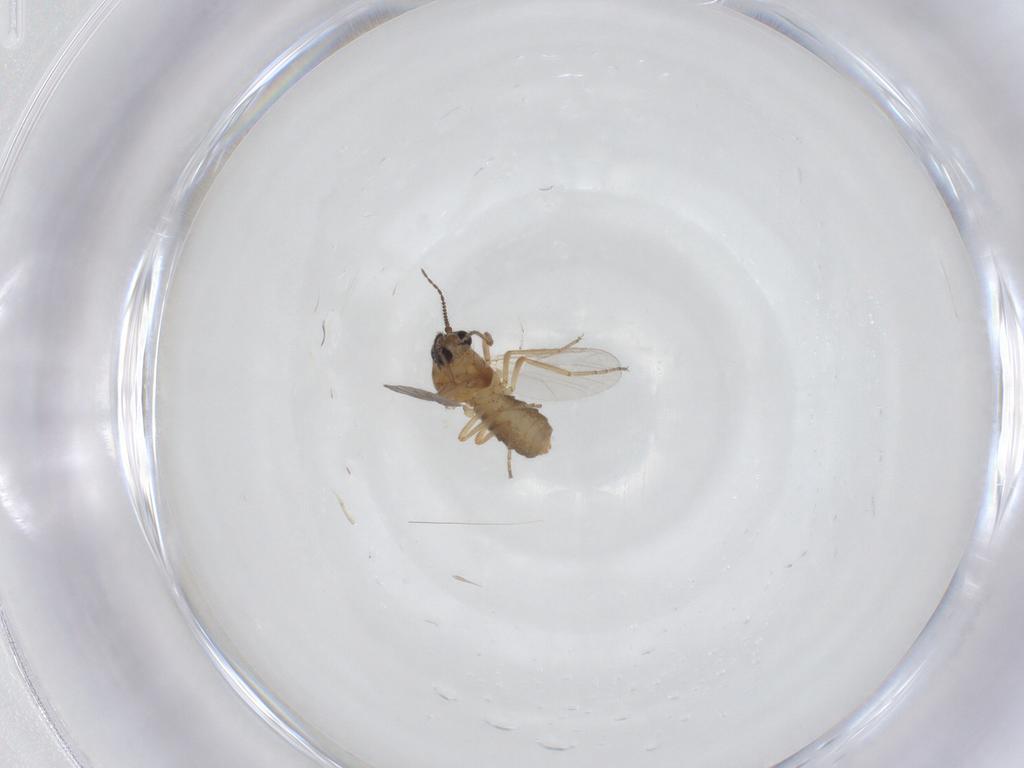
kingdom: Animalia
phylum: Arthropoda
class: Insecta
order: Diptera
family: Ceratopogonidae
